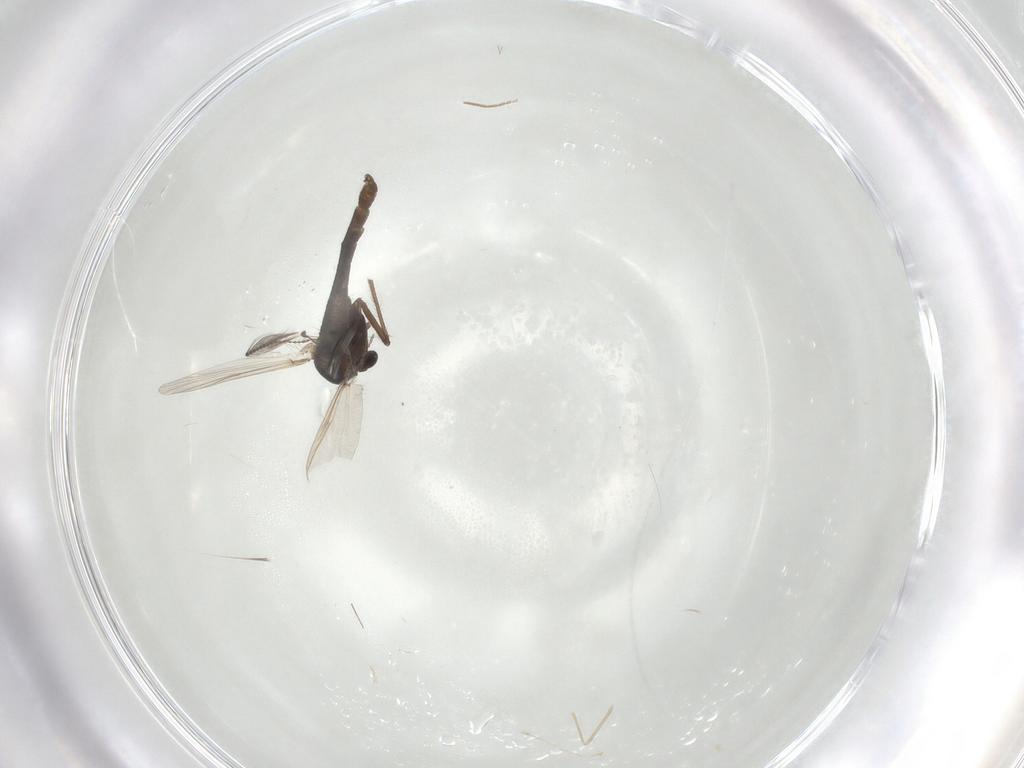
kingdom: Animalia
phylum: Arthropoda
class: Insecta
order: Diptera
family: Chironomidae
